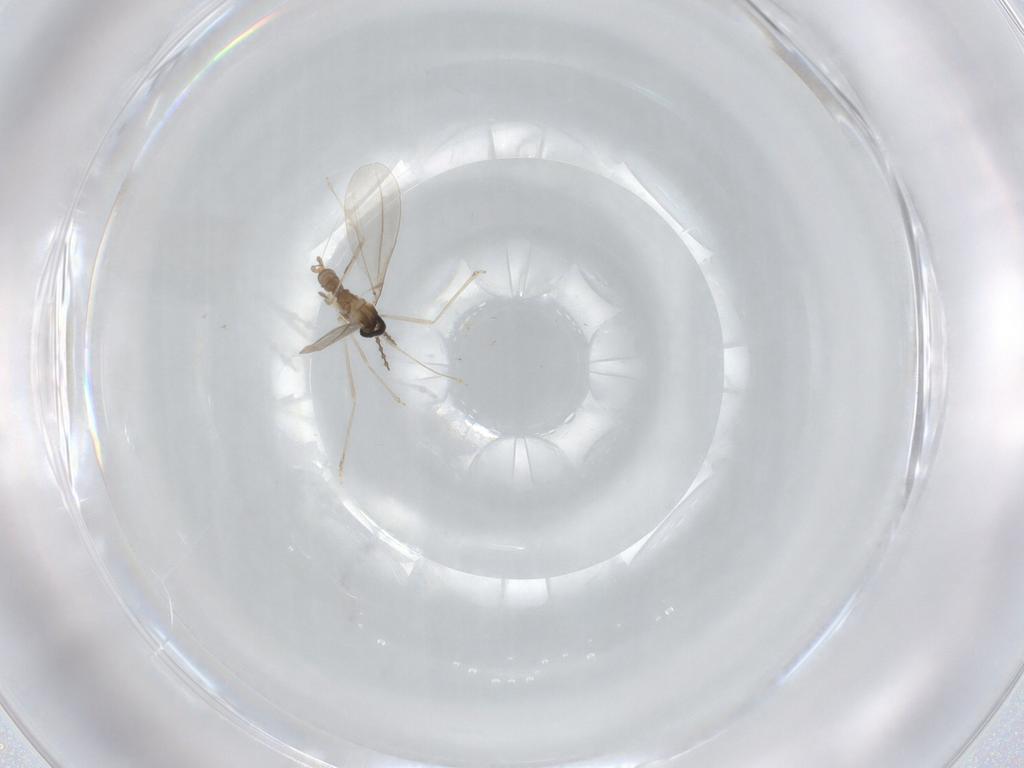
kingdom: Animalia
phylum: Arthropoda
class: Insecta
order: Diptera
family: Cecidomyiidae
